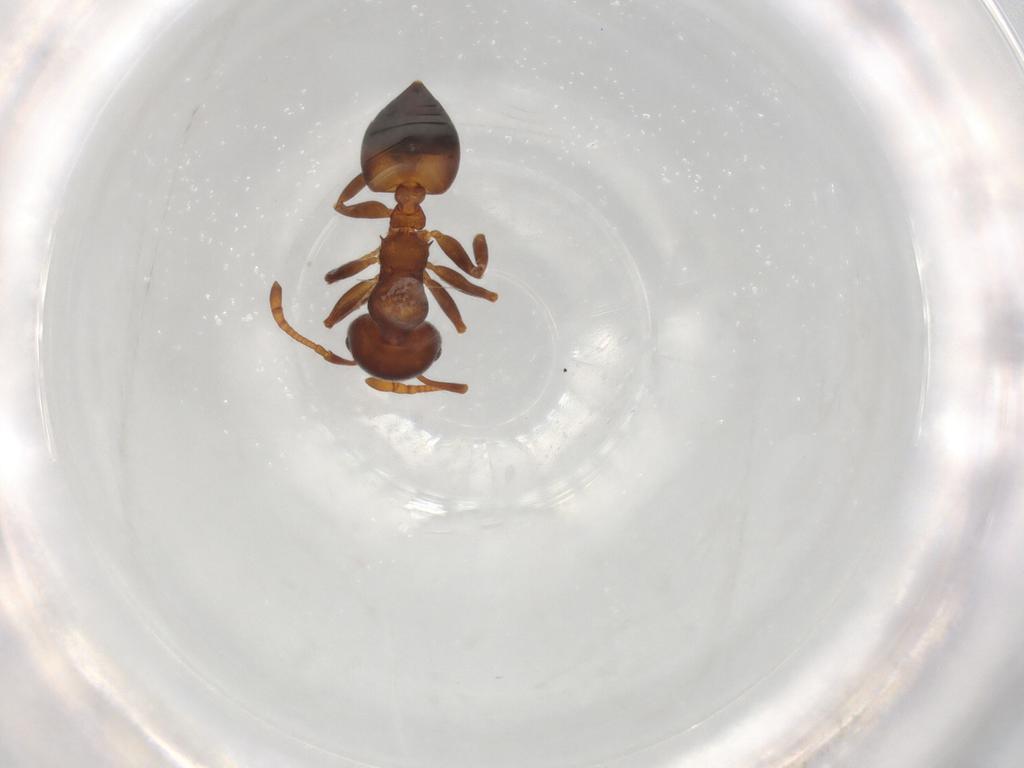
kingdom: Animalia
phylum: Arthropoda
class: Insecta
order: Hymenoptera
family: Formicidae
